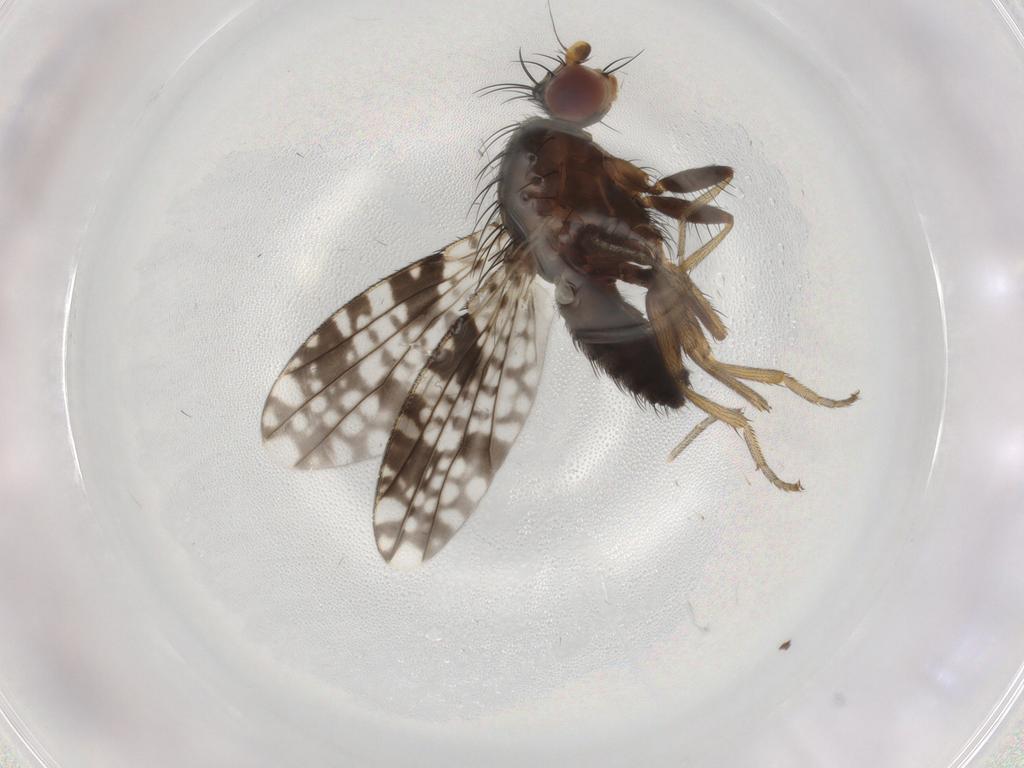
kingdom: Animalia
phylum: Arthropoda
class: Insecta
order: Diptera
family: Tephritidae
